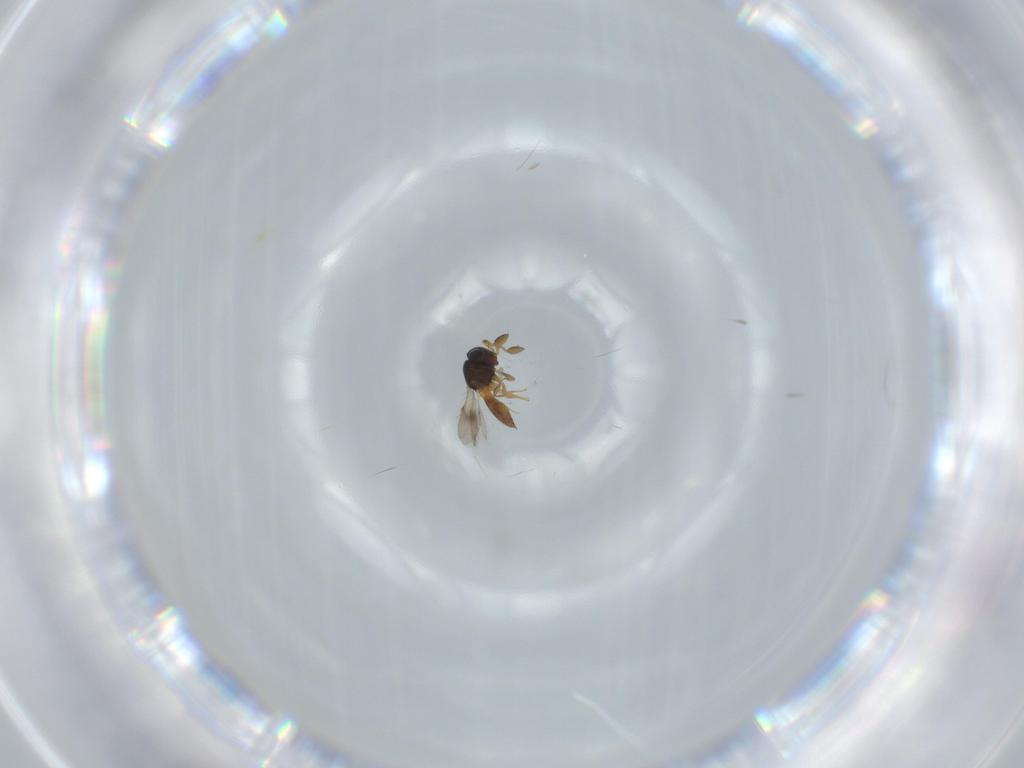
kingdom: Animalia
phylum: Arthropoda
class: Insecta
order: Hymenoptera
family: Scelionidae
